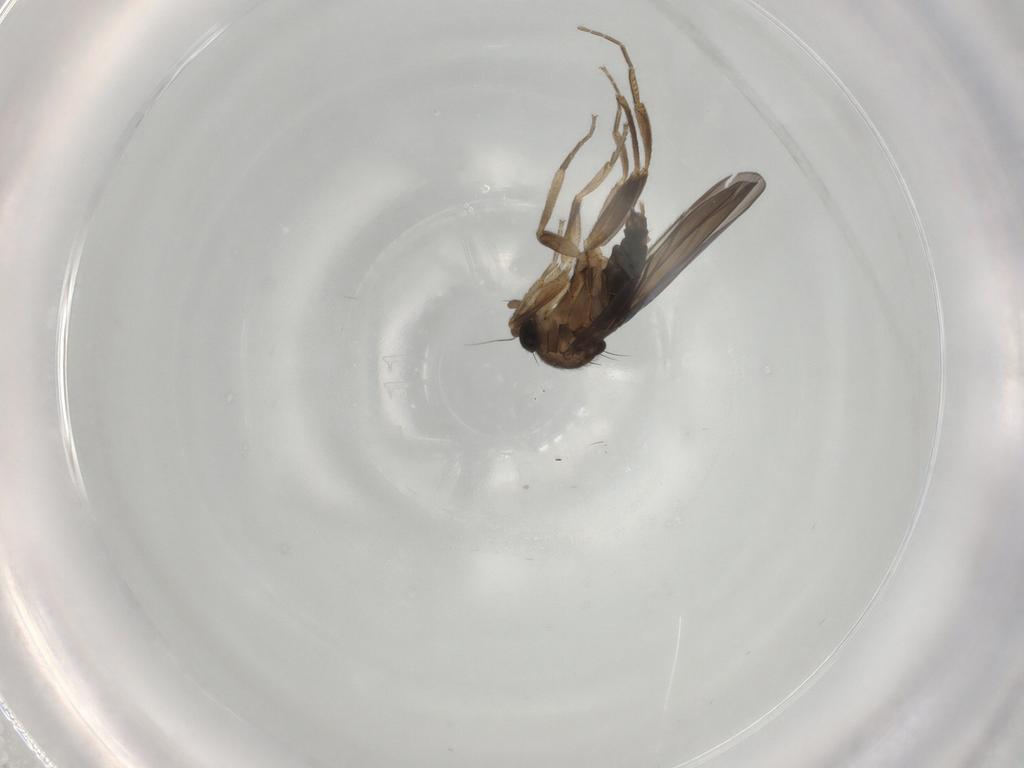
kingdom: Animalia
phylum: Arthropoda
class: Insecta
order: Diptera
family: Phoridae
